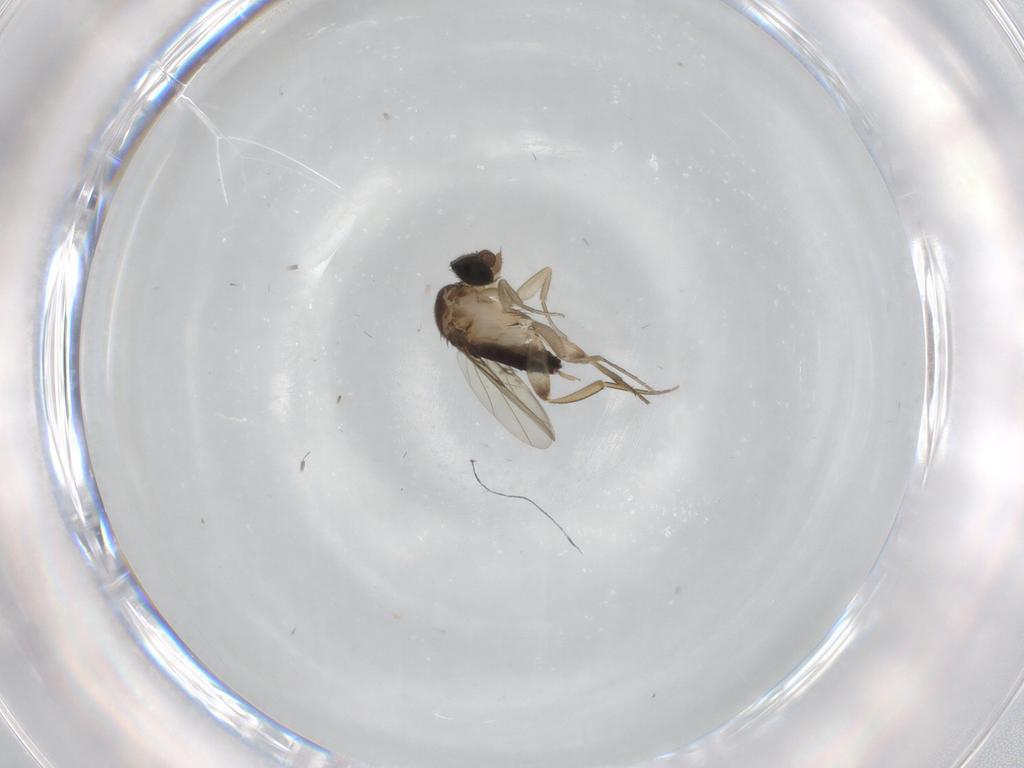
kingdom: Animalia
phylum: Arthropoda
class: Insecta
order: Diptera
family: Phoridae
